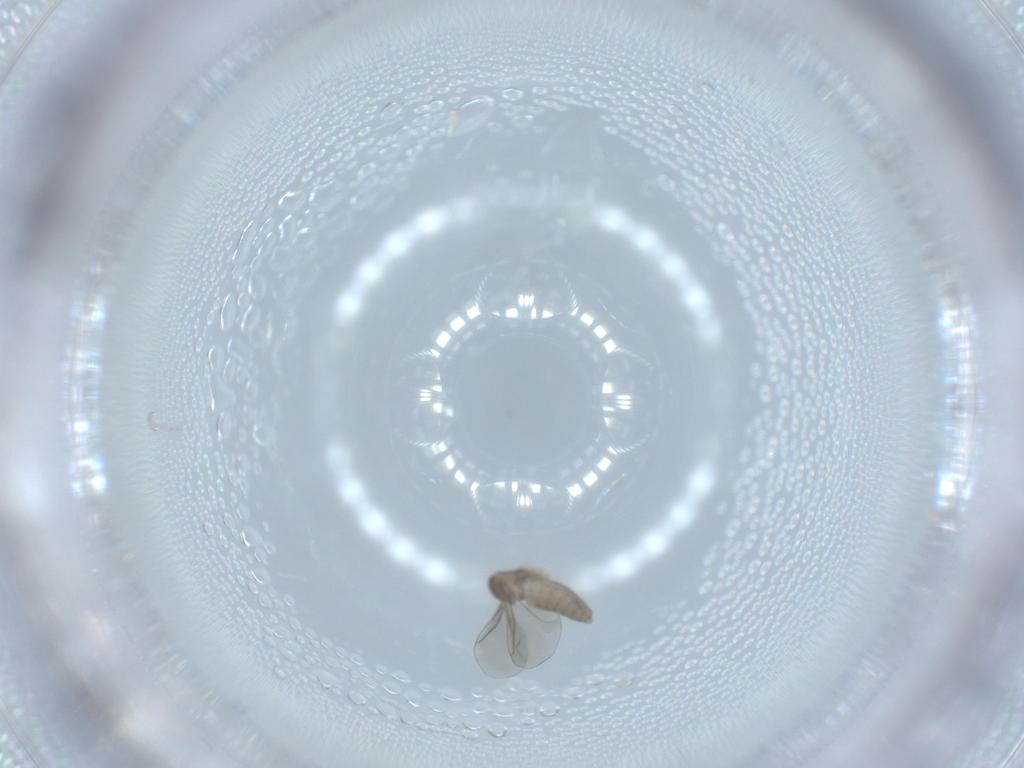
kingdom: Animalia
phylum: Arthropoda
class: Insecta
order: Diptera
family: Cecidomyiidae
